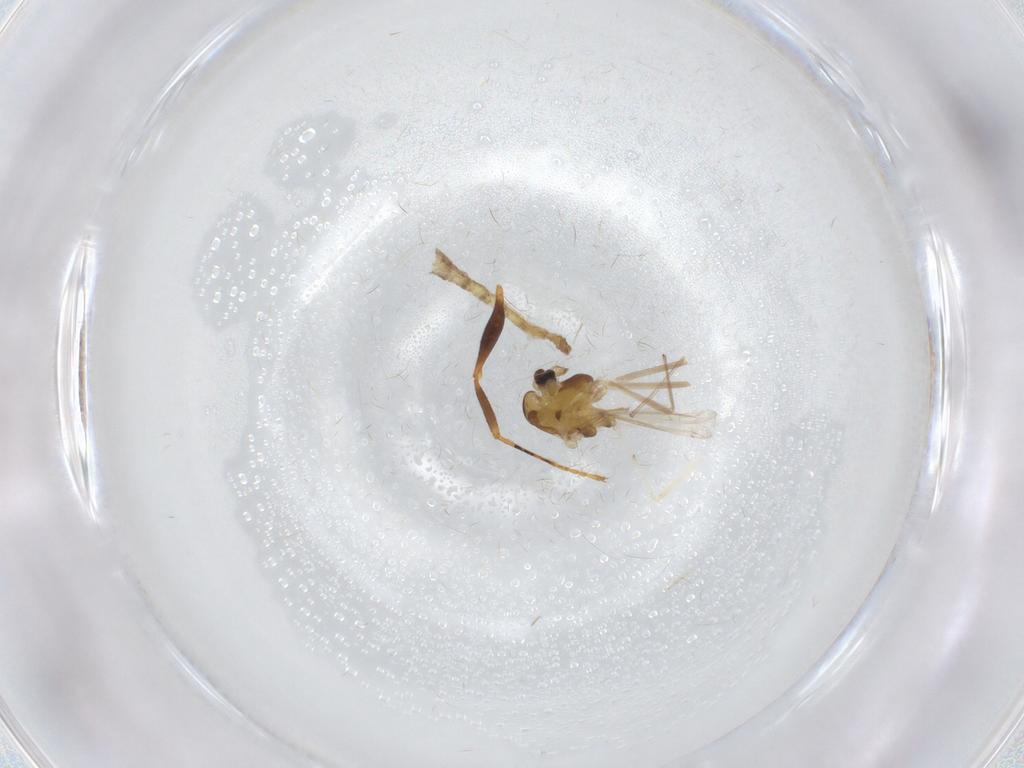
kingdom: Animalia
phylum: Arthropoda
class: Insecta
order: Diptera
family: Chironomidae
